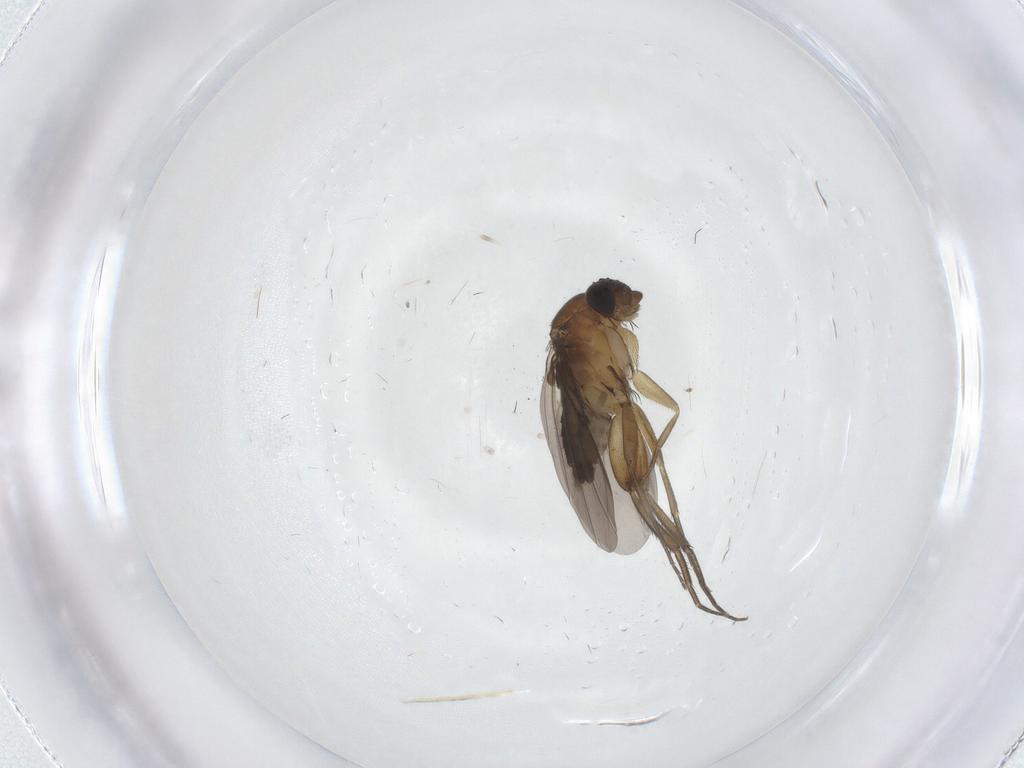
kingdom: Animalia
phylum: Arthropoda
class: Insecta
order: Diptera
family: Phoridae
